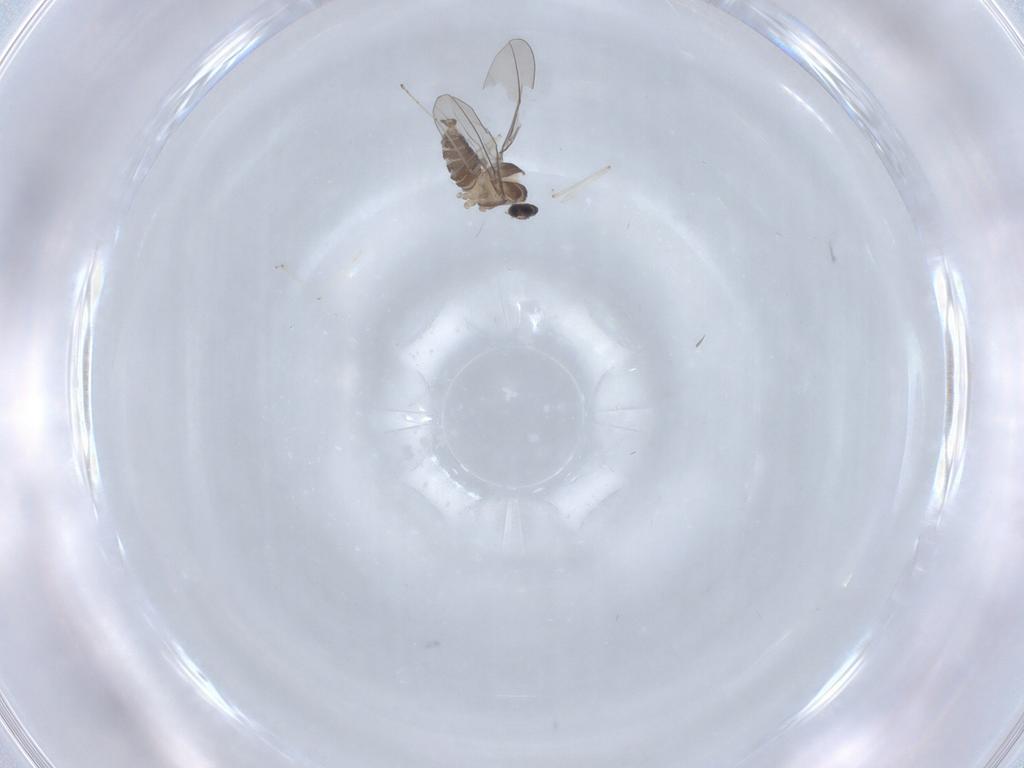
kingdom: Animalia
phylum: Arthropoda
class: Insecta
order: Diptera
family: Cecidomyiidae
